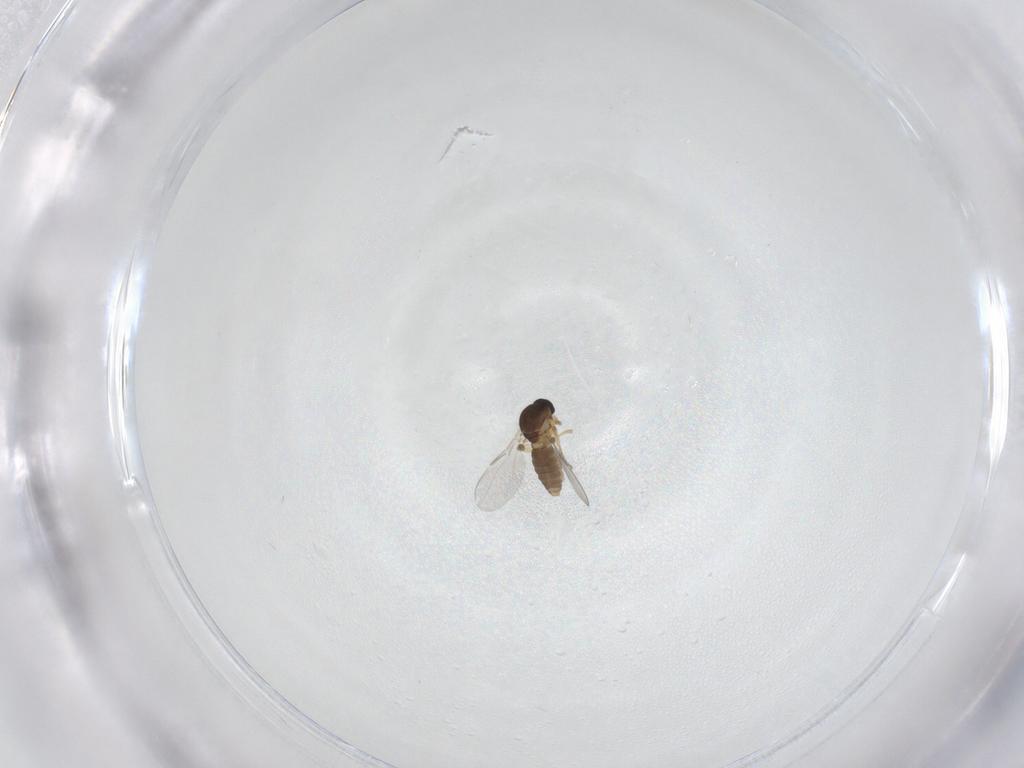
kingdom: Animalia
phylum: Arthropoda
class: Insecta
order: Diptera
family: Ceratopogonidae
